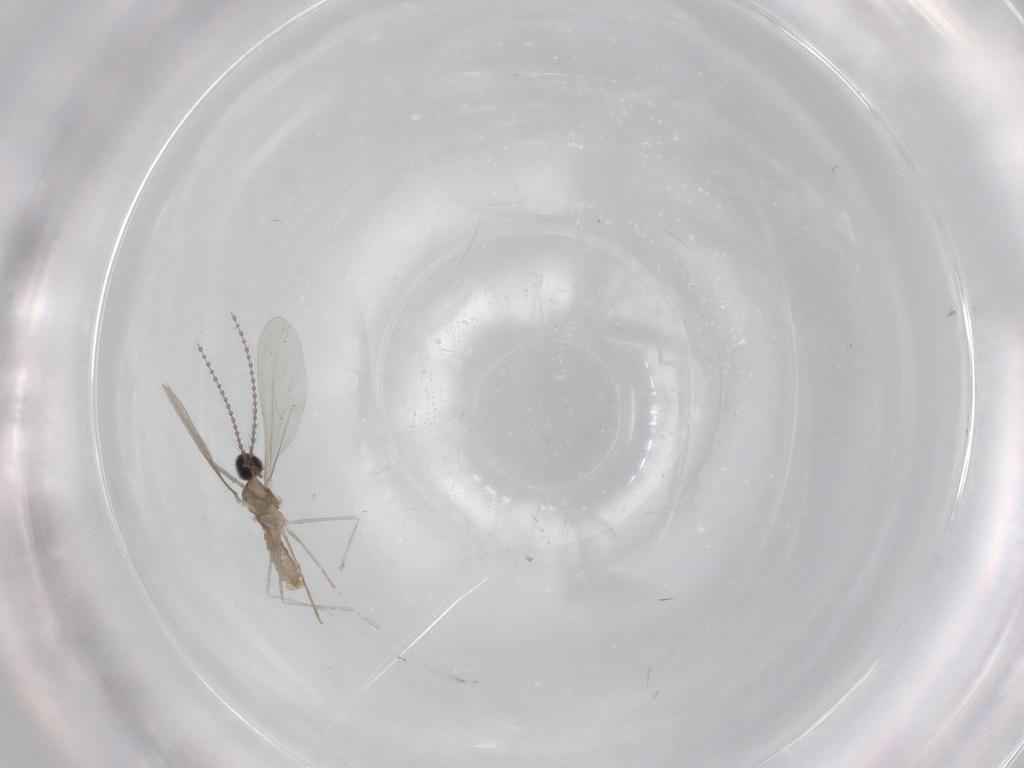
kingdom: Animalia
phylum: Arthropoda
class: Insecta
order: Diptera
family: Cecidomyiidae
